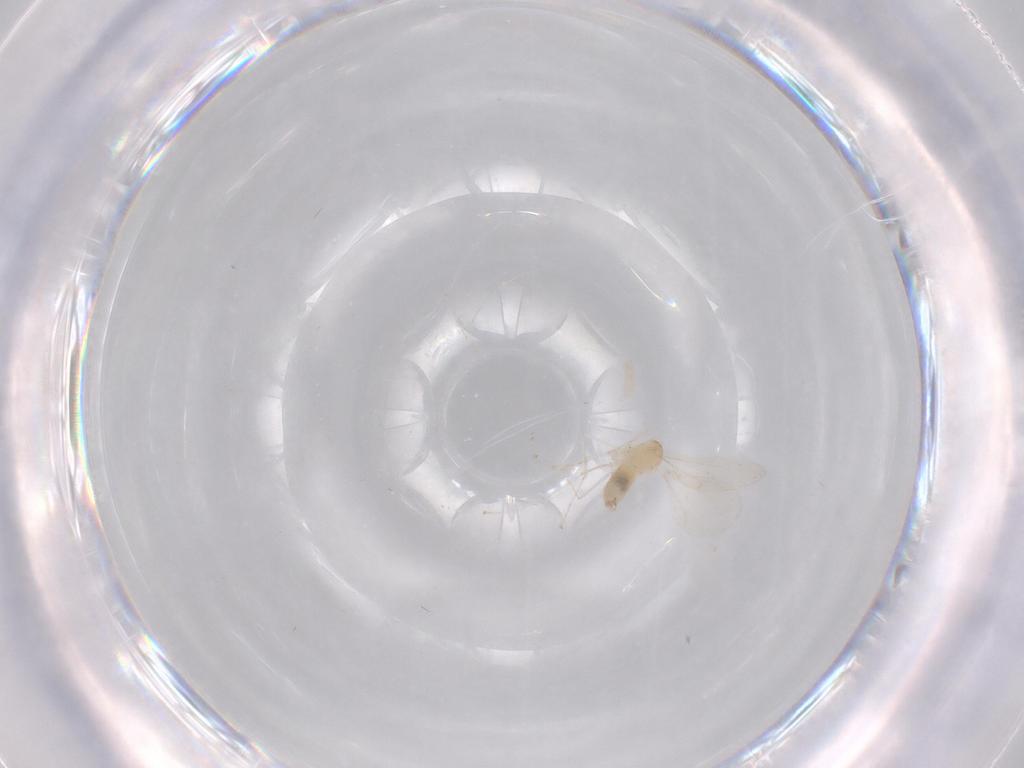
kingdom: Animalia
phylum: Arthropoda
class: Insecta
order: Diptera
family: Cecidomyiidae
